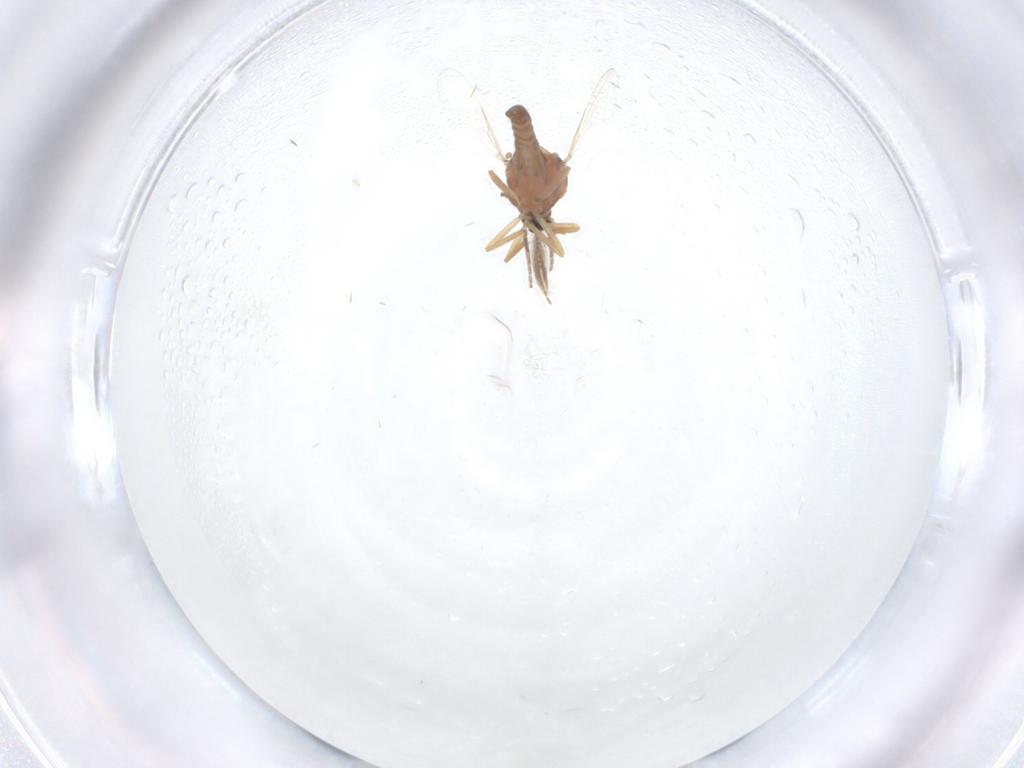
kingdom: Animalia
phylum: Arthropoda
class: Insecta
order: Diptera
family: Ceratopogonidae
